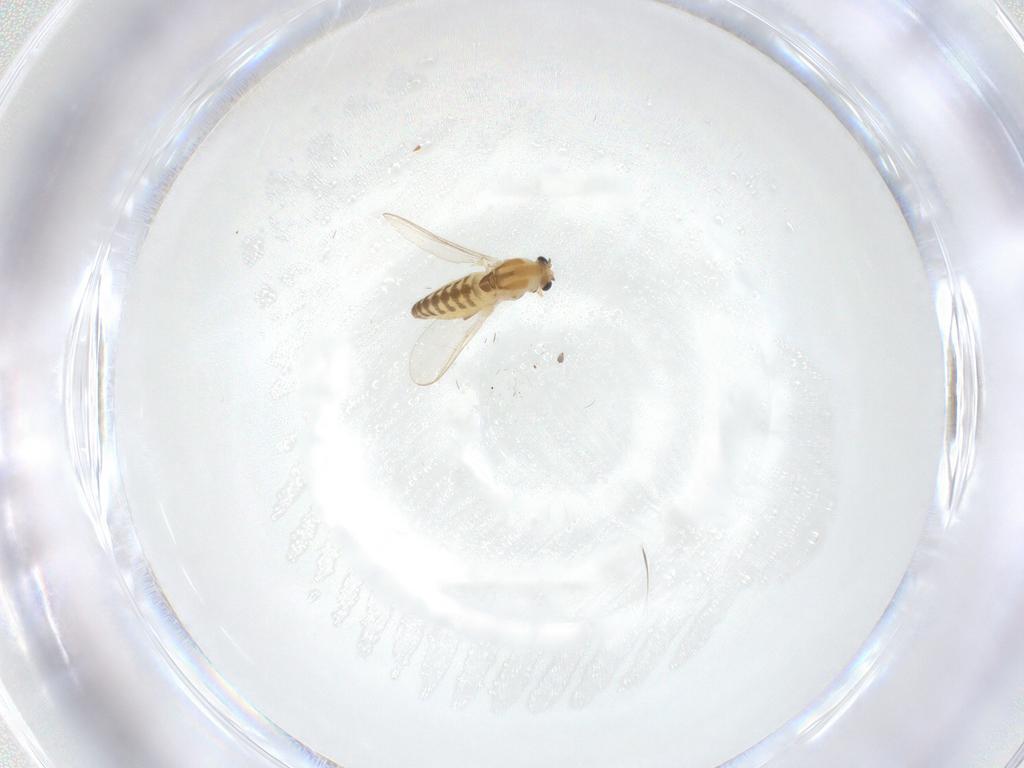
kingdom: Animalia
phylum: Arthropoda
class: Insecta
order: Diptera
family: Chironomidae
